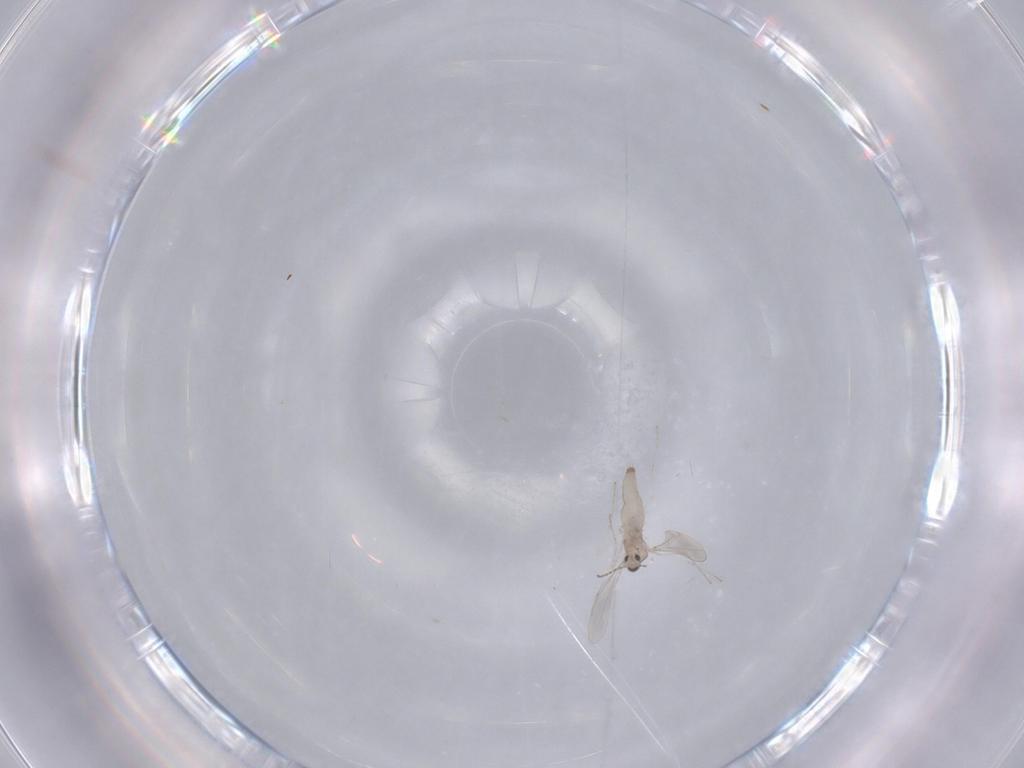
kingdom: Animalia
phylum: Arthropoda
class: Insecta
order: Diptera
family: Cecidomyiidae
